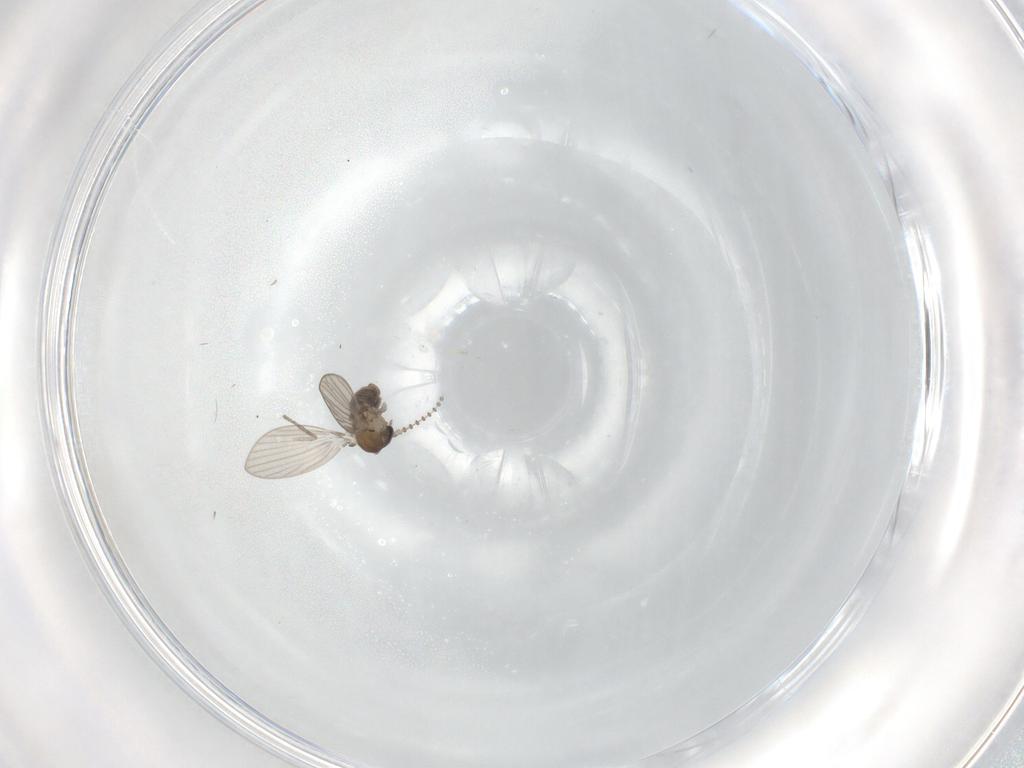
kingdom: Animalia
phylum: Arthropoda
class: Insecta
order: Diptera
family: Psychodidae
